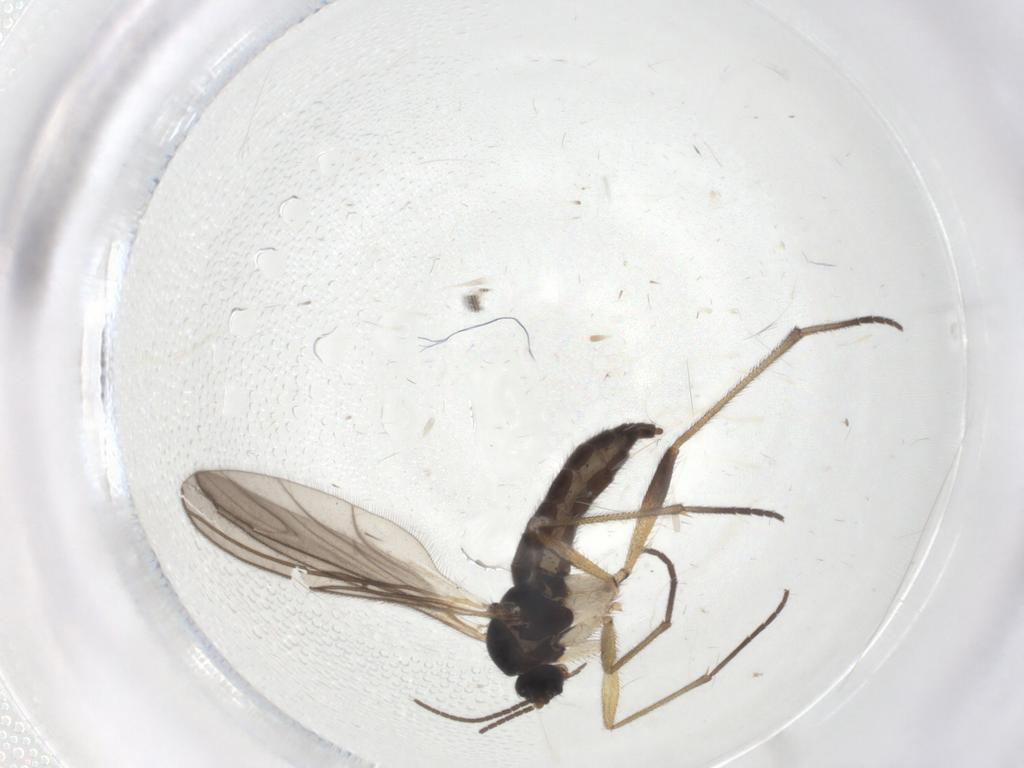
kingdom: Animalia
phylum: Arthropoda
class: Insecta
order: Diptera
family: Sciaridae
